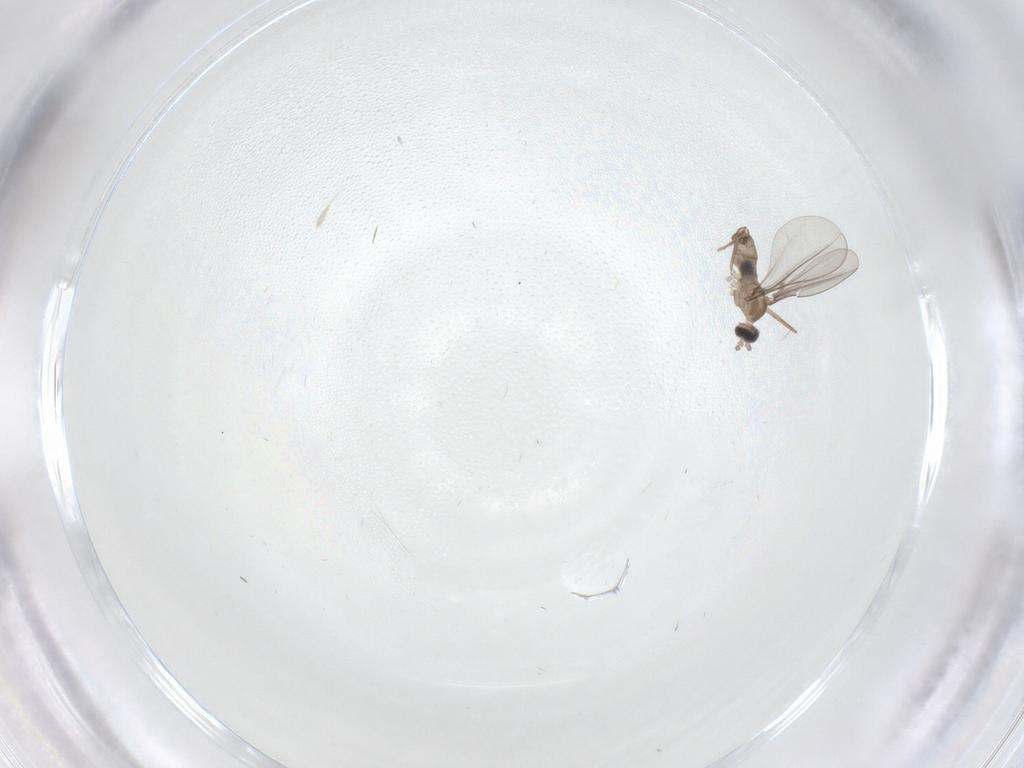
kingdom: Animalia
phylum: Arthropoda
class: Insecta
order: Diptera
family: Cecidomyiidae
